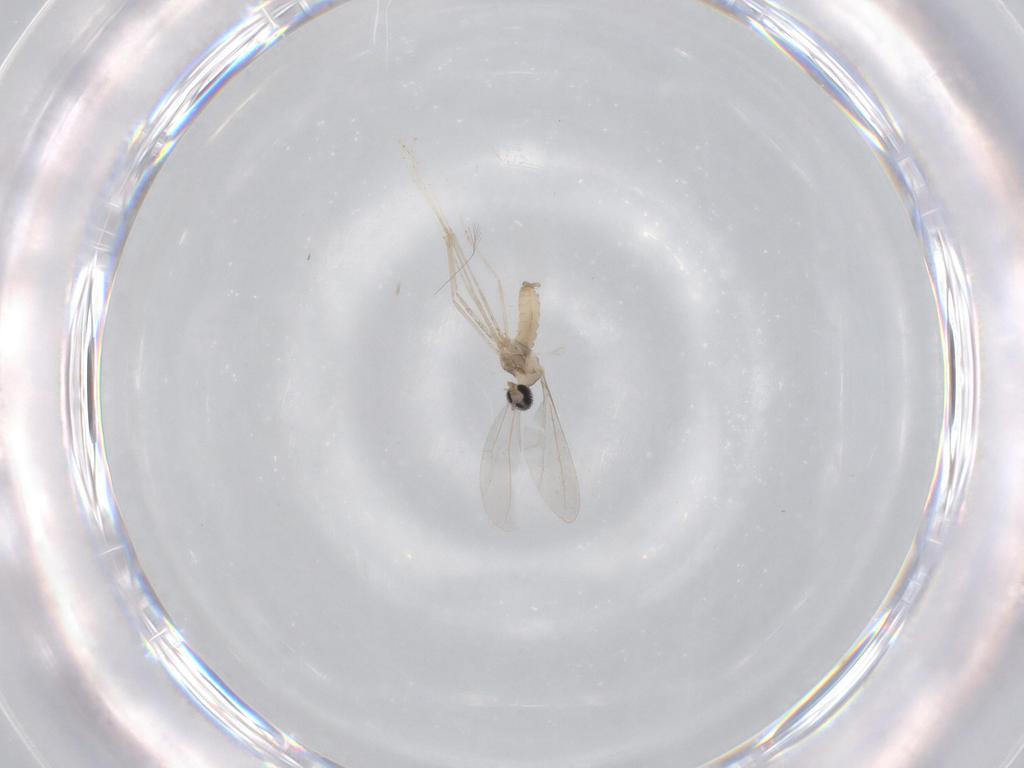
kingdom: Animalia
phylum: Arthropoda
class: Insecta
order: Diptera
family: Cecidomyiidae
